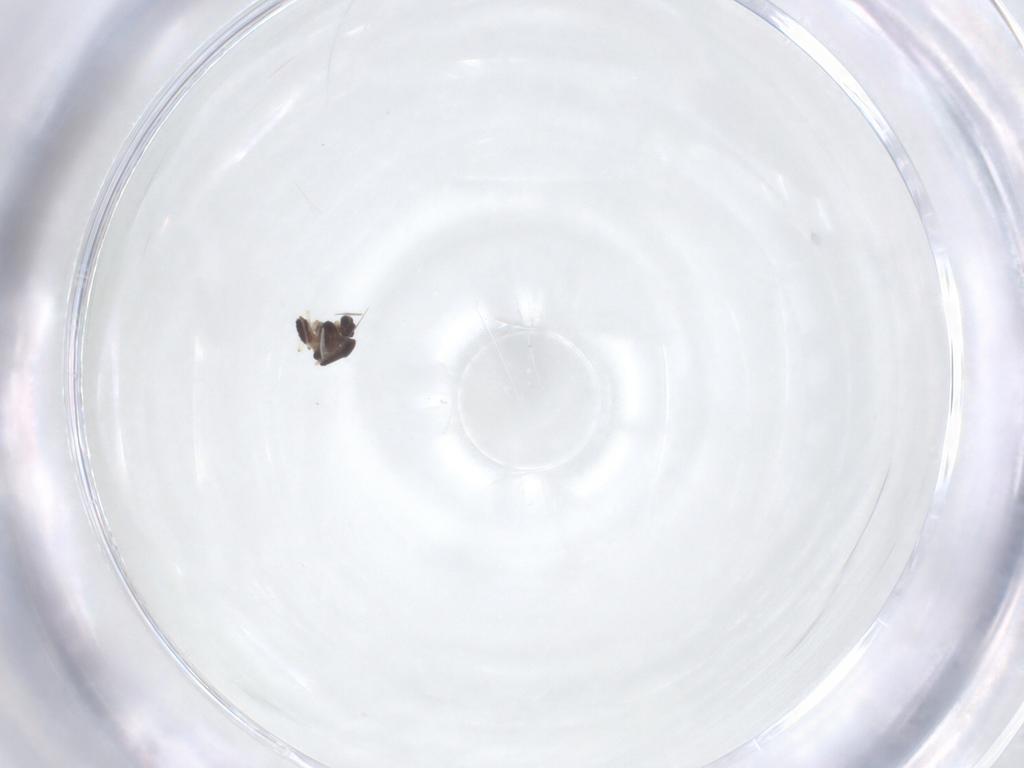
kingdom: Animalia
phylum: Arthropoda
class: Insecta
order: Diptera
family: Chironomidae
